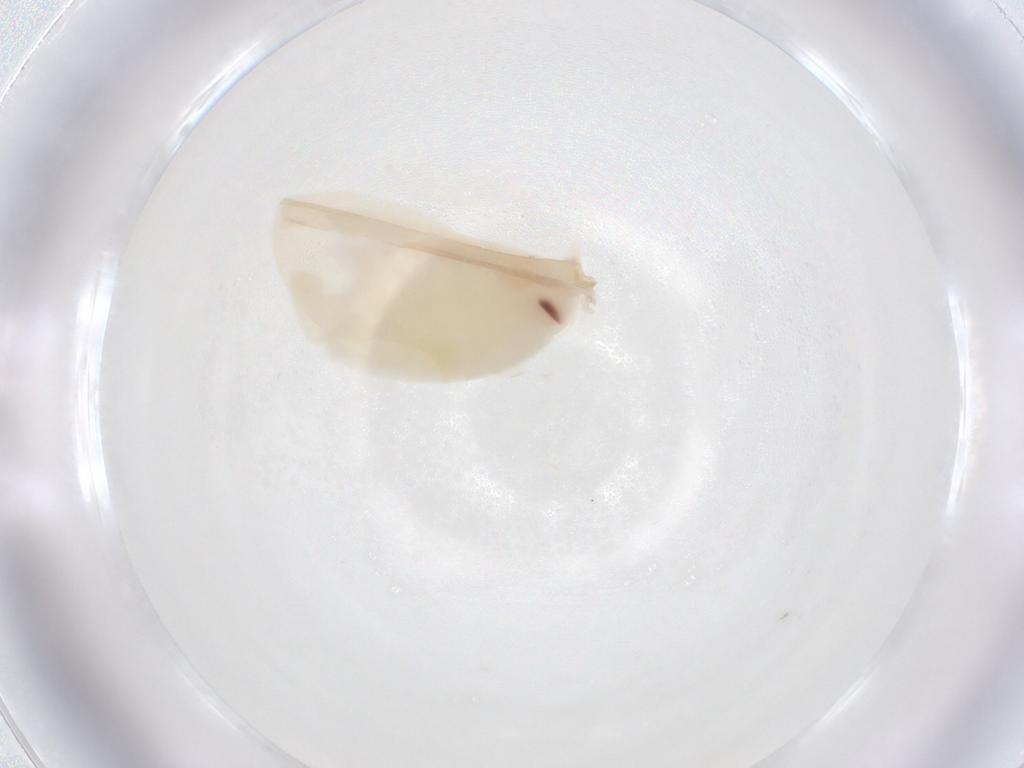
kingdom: Animalia
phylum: Arthropoda
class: Insecta
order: Blattodea
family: Ectobiidae
